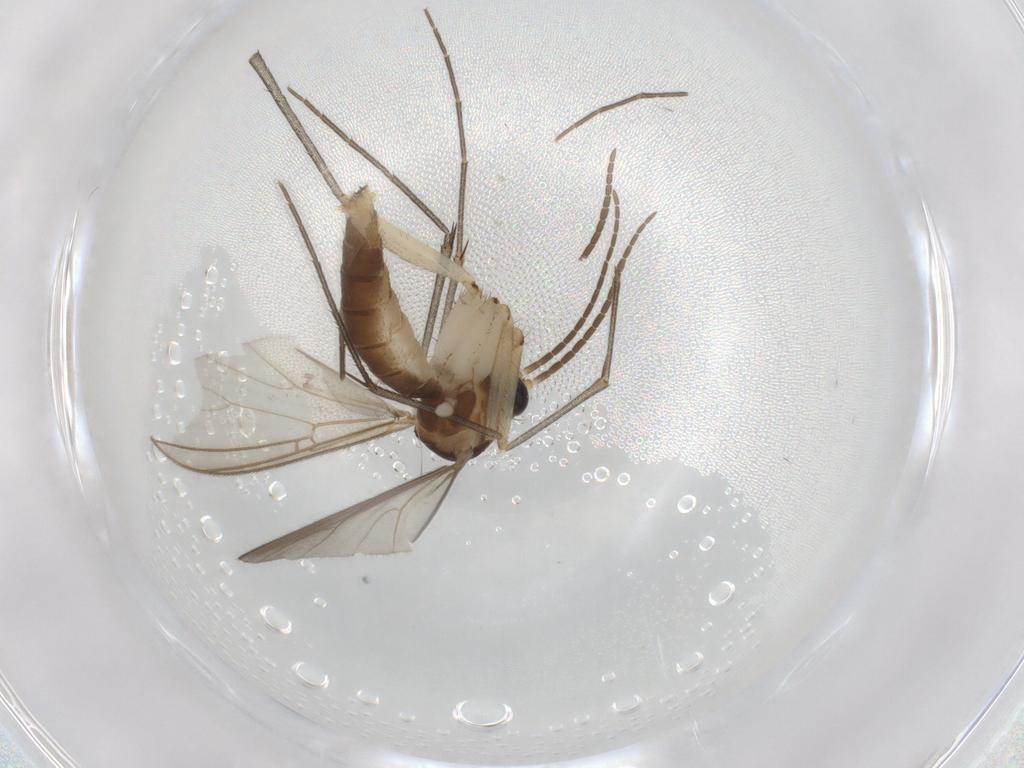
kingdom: Animalia
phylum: Arthropoda
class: Insecta
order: Diptera
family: Mycetophilidae
